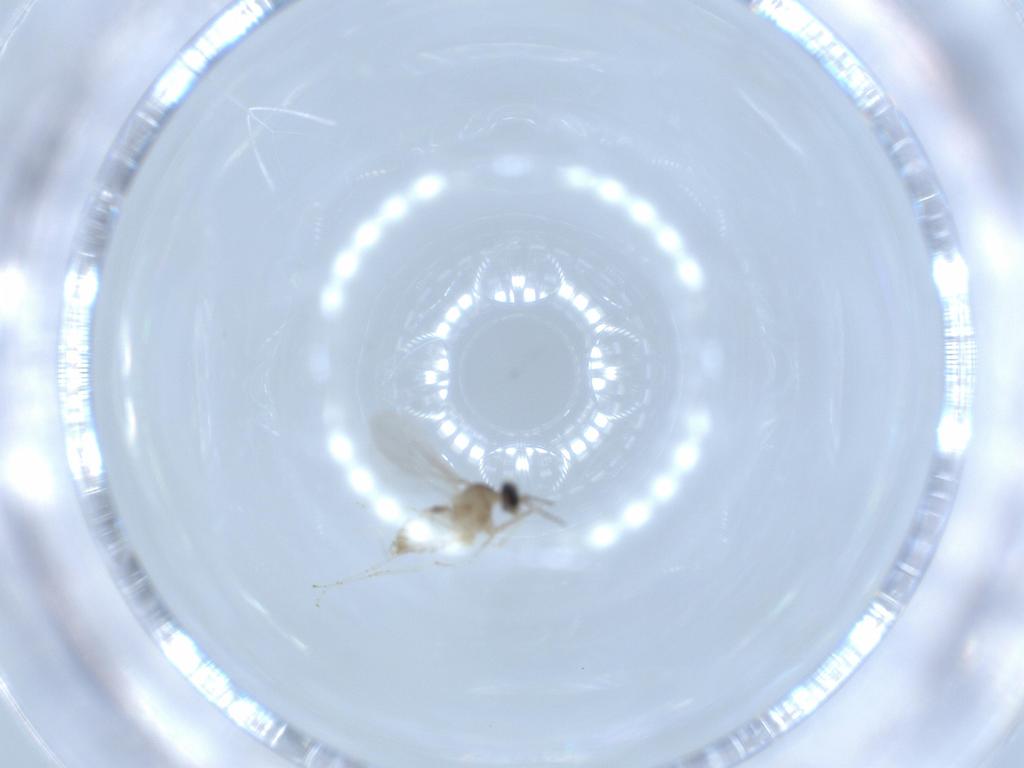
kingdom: Animalia
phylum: Arthropoda
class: Insecta
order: Diptera
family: Cecidomyiidae
